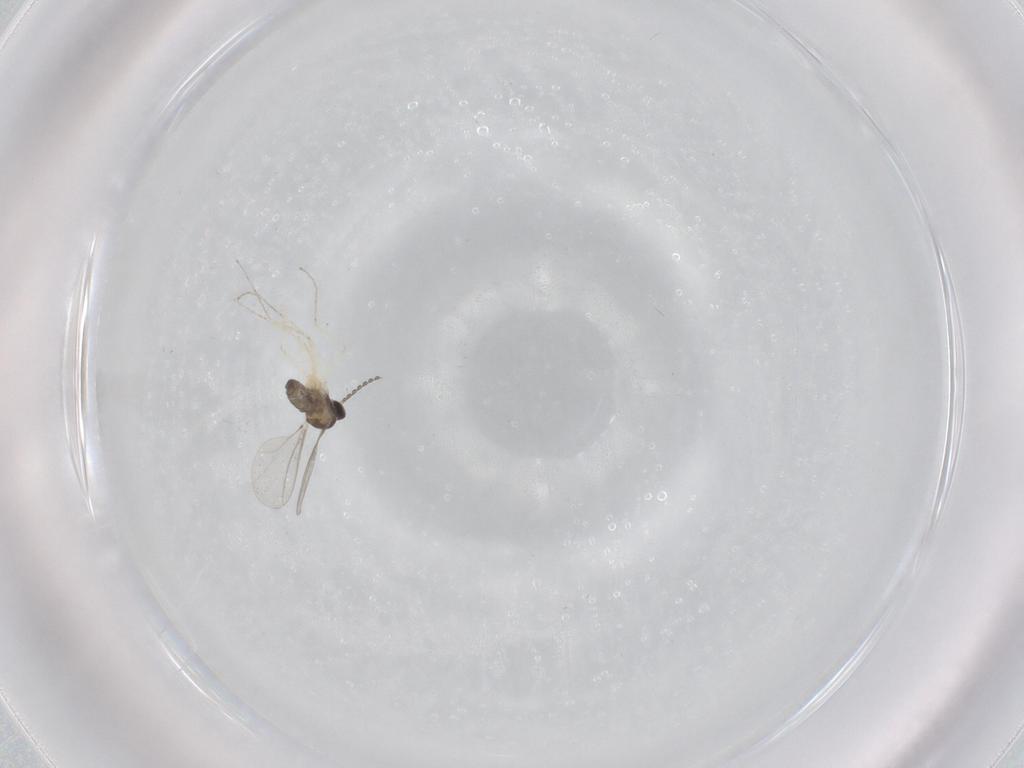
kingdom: Animalia
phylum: Arthropoda
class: Insecta
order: Diptera
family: Cecidomyiidae
